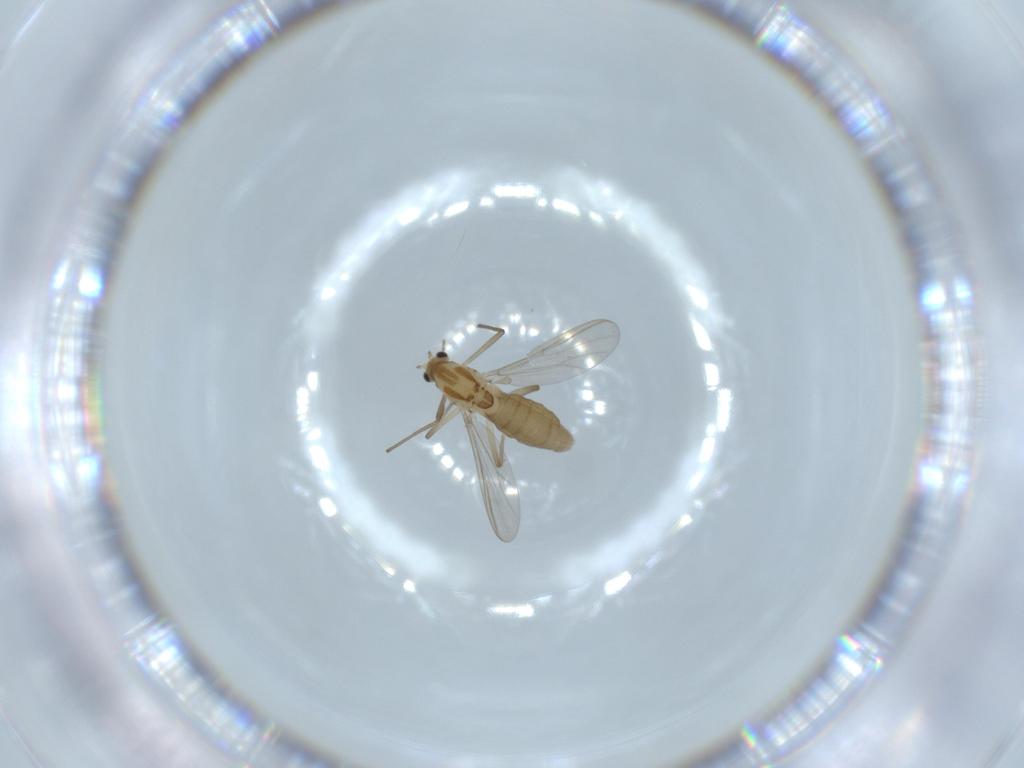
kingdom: Animalia
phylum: Arthropoda
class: Insecta
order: Diptera
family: Chironomidae
